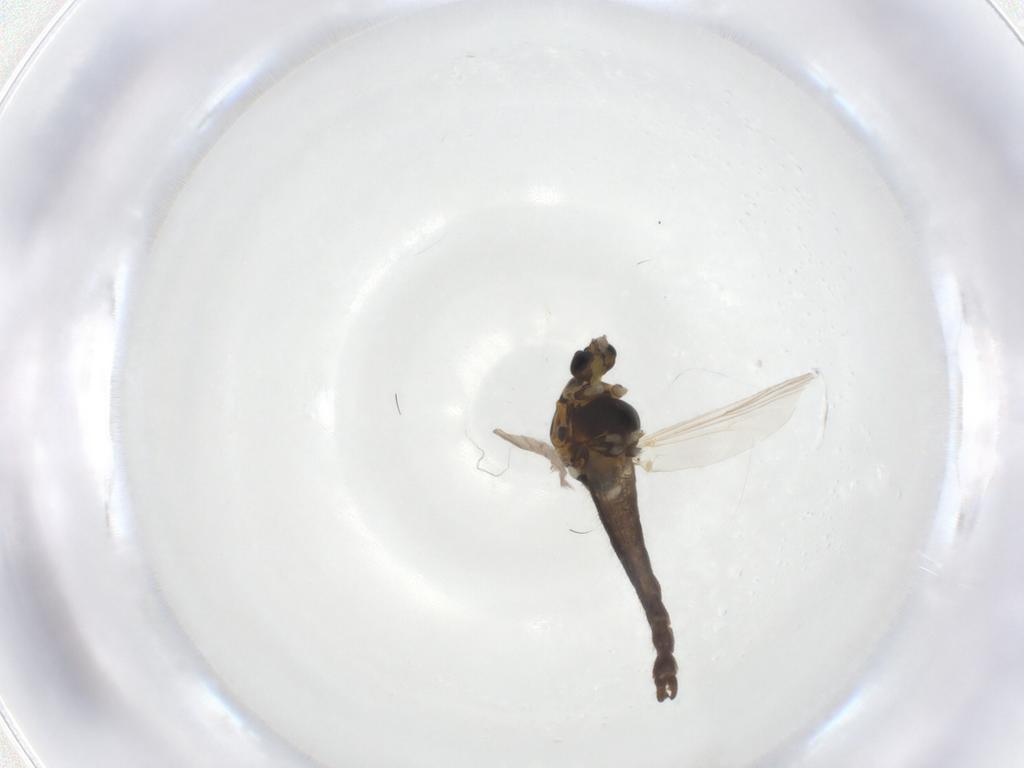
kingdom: Animalia
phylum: Arthropoda
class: Insecta
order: Diptera
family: Chironomidae
